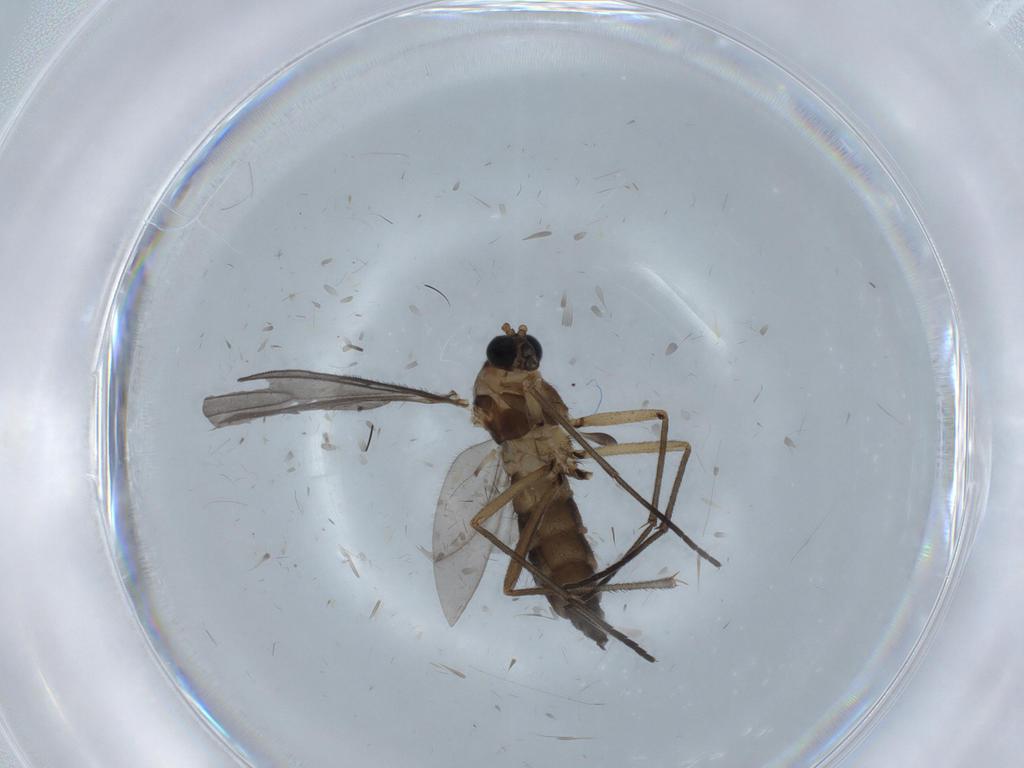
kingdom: Animalia
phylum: Arthropoda
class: Insecta
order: Diptera
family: Sciaridae
